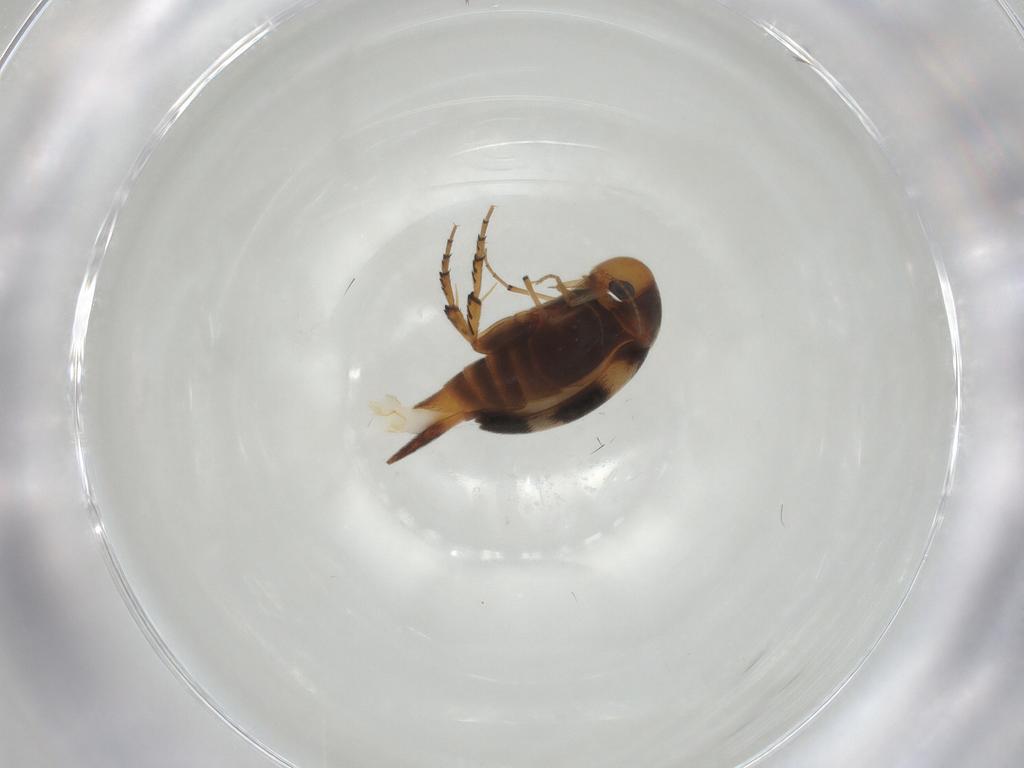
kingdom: Animalia
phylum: Arthropoda
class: Insecta
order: Coleoptera
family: Mordellidae
